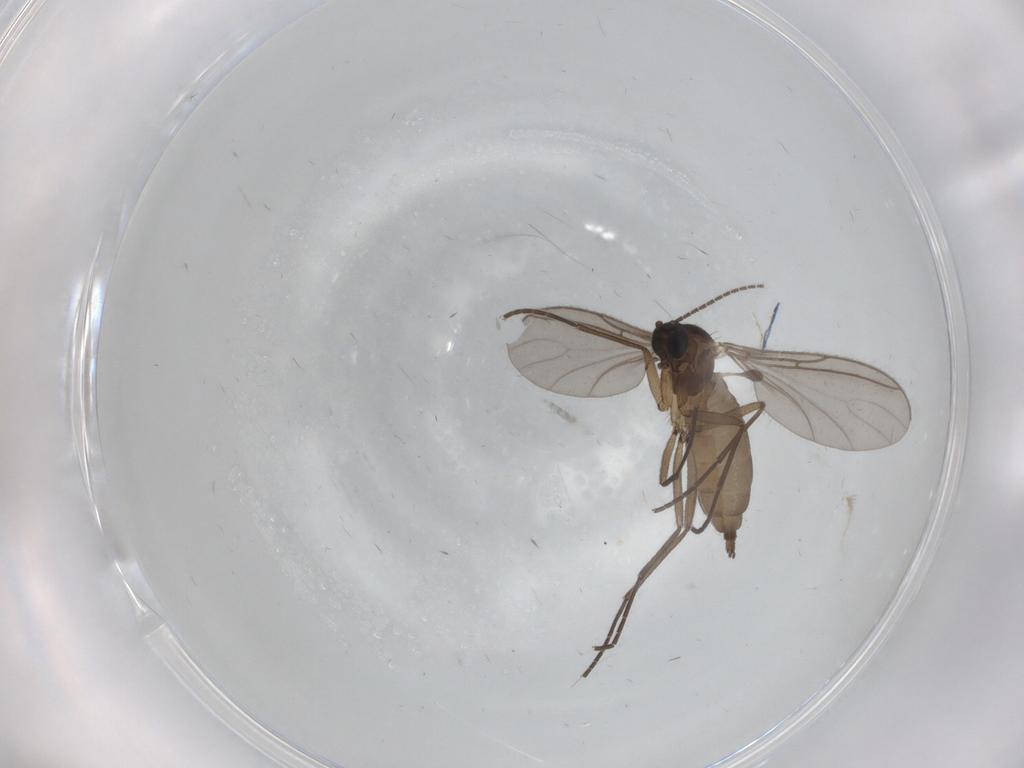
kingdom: Animalia
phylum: Arthropoda
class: Insecta
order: Diptera
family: Sciaridae
